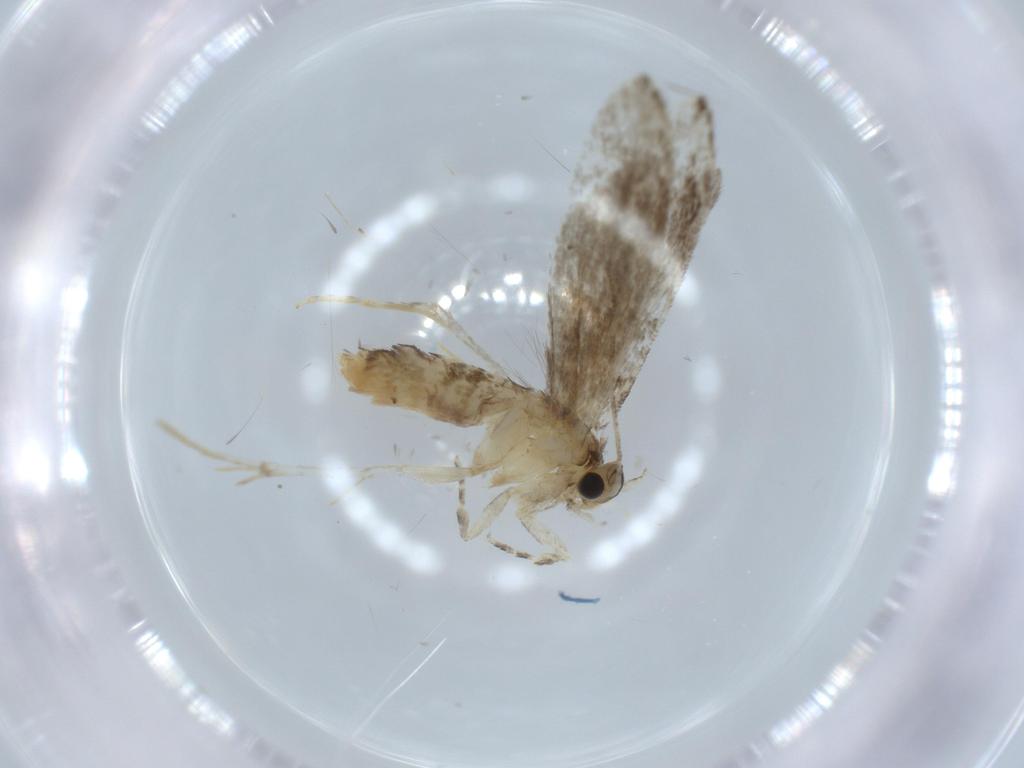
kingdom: Animalia
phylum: Arthropoda
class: Insecta
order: Lepidoptera
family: Tineidae
